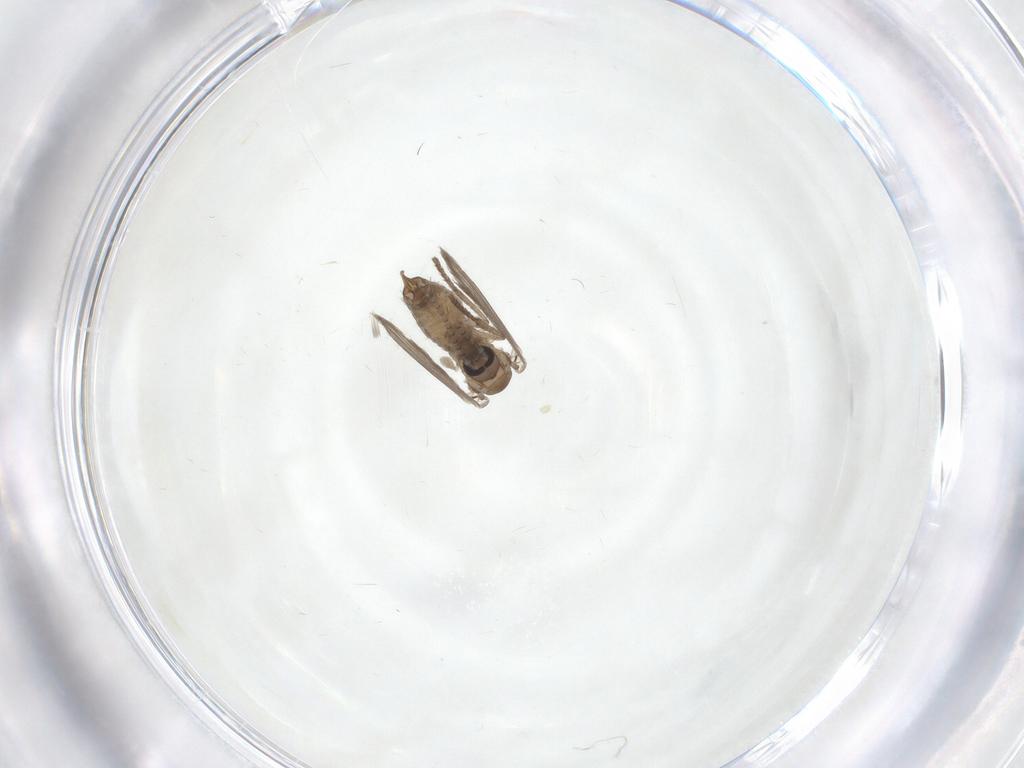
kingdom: Animalia
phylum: Arthropoda
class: Insecta
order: Diptera
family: Psychodidae
